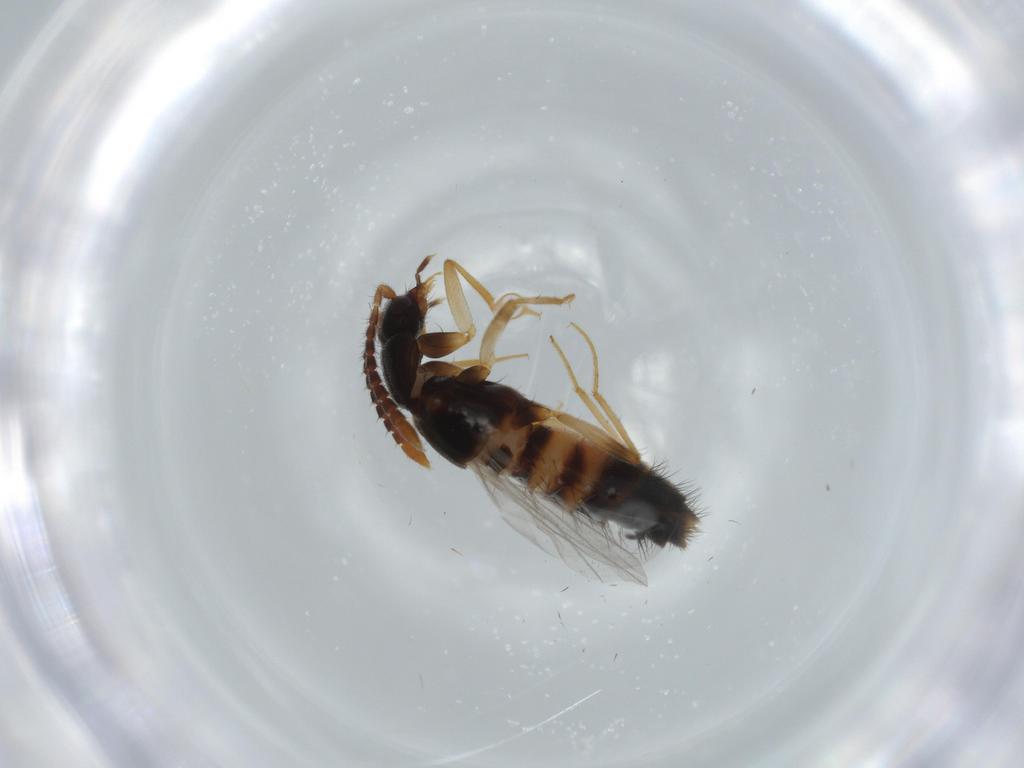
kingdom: Animalia
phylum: Arthropoda
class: Insecta
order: Coleoptera
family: Staphylinidae
